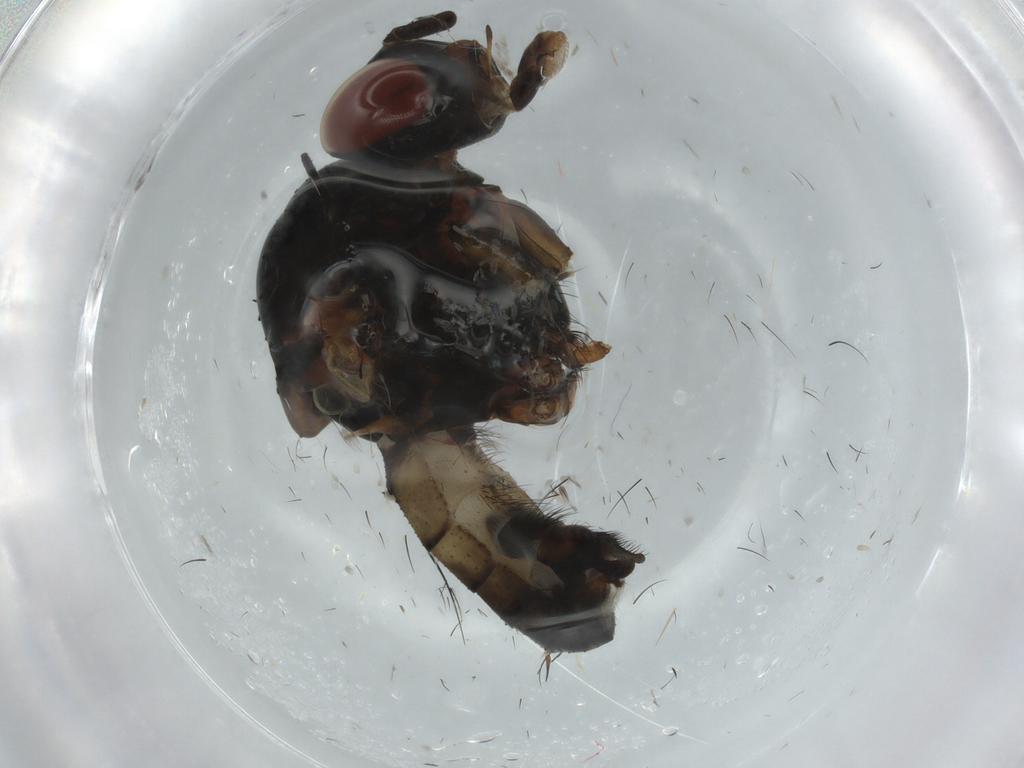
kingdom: Animalia
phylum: Arthropoda
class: Insecta
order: Diptera
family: Anthomyiidae
